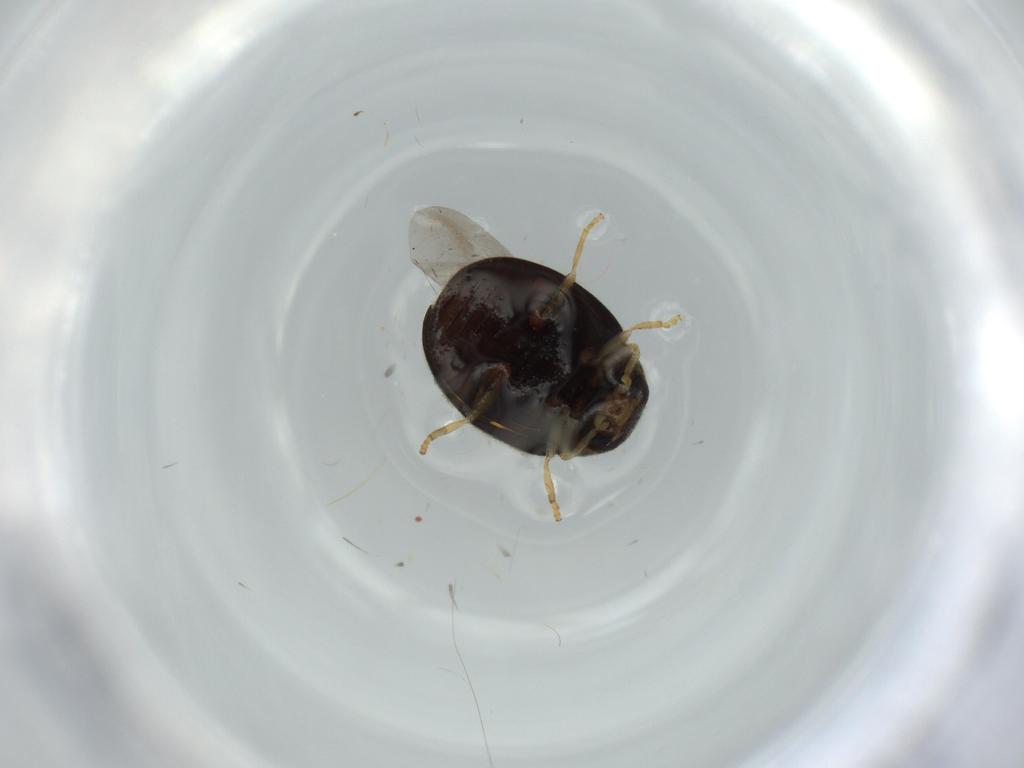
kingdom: Animalia
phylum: Arthropoda
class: Insecta
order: Coleoptera
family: Coccinellidae
